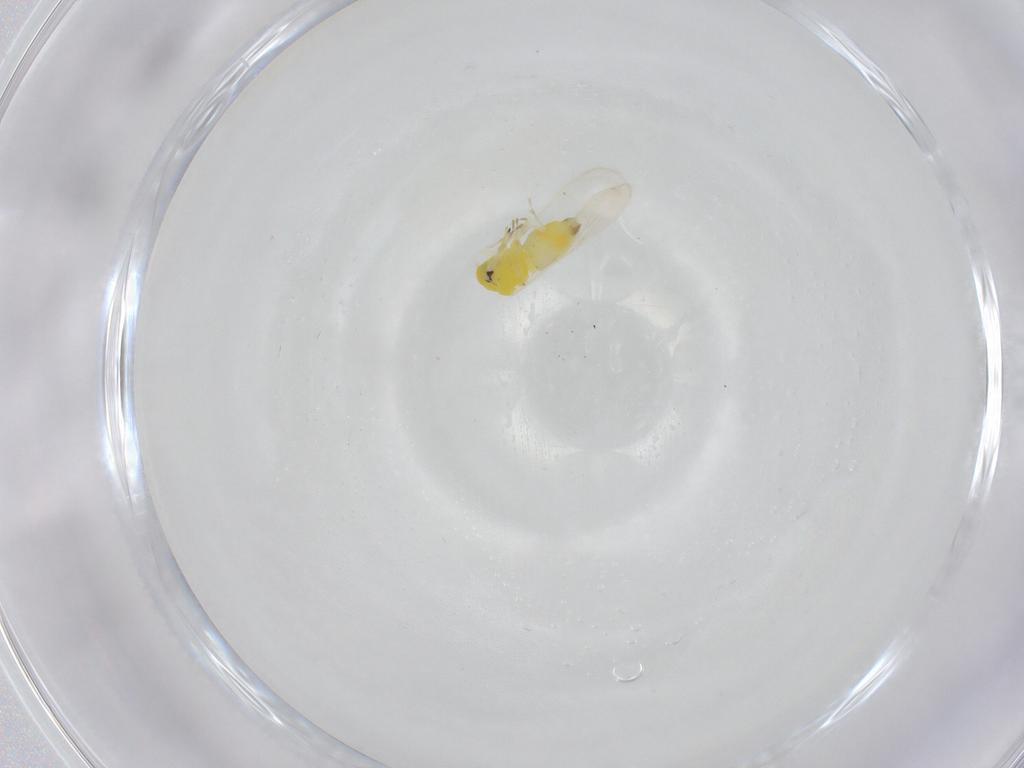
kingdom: Animalia
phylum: Arthropoda
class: Insecta
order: Hemiptera
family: Aleyrodidae
